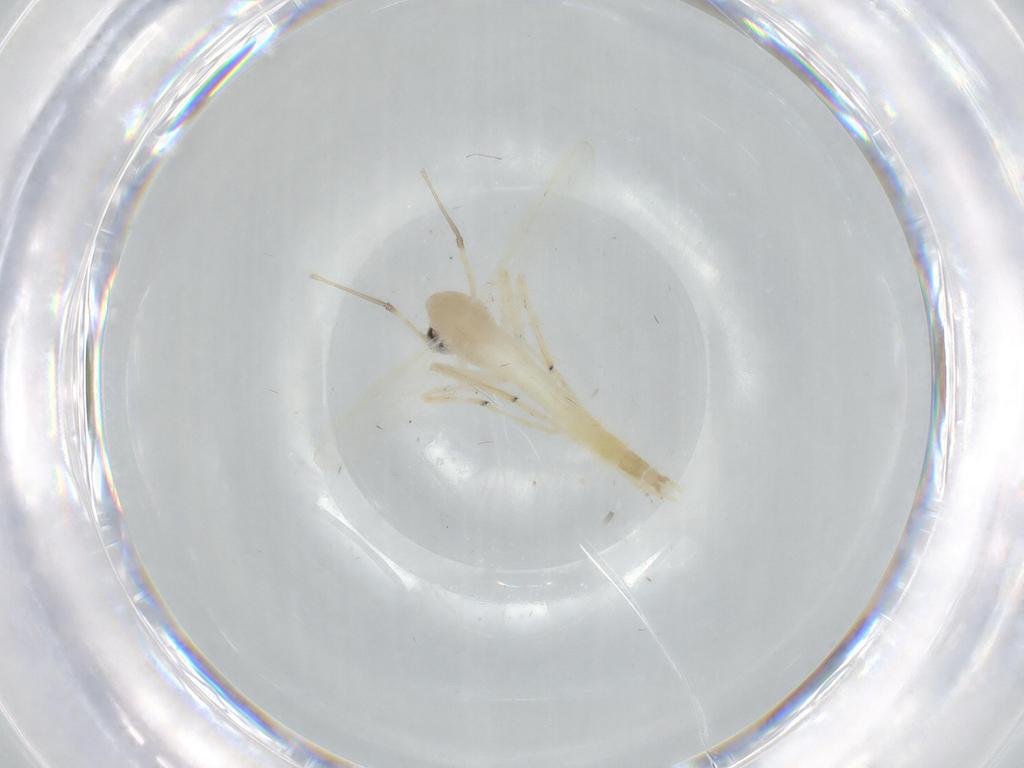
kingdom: Animalia
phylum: Arthropoda
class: Insecta
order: Diptera
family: Chironomidae
